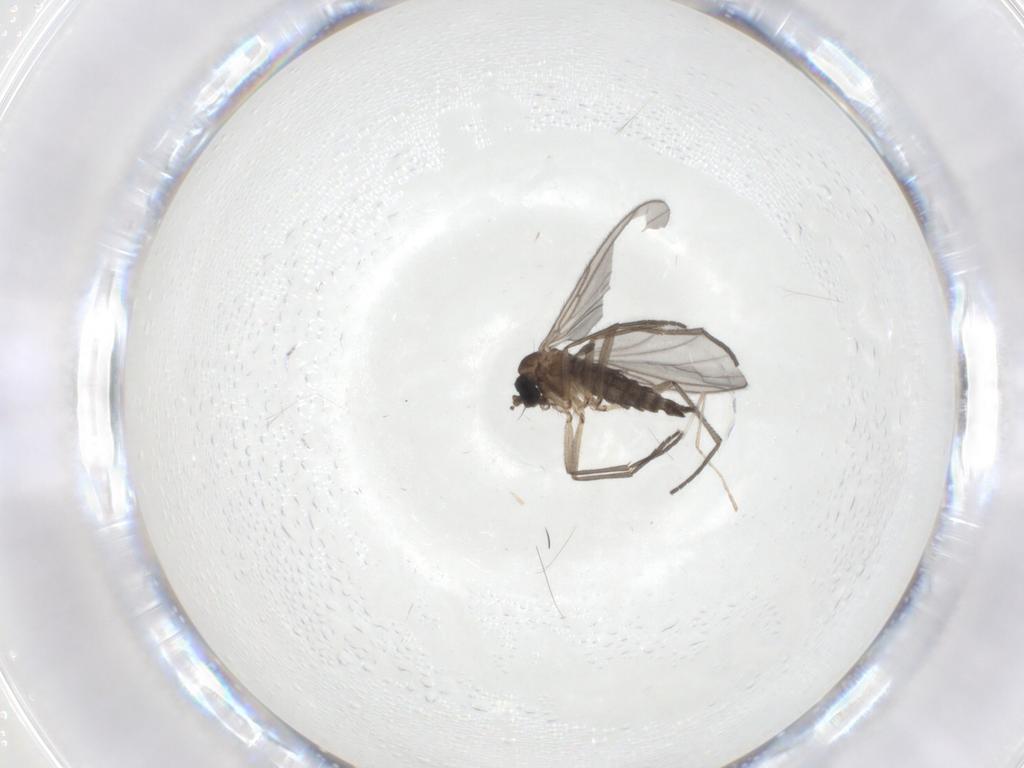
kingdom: Animalia
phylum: Arthropoda
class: Insecta
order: Diptera
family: Sciaridae
